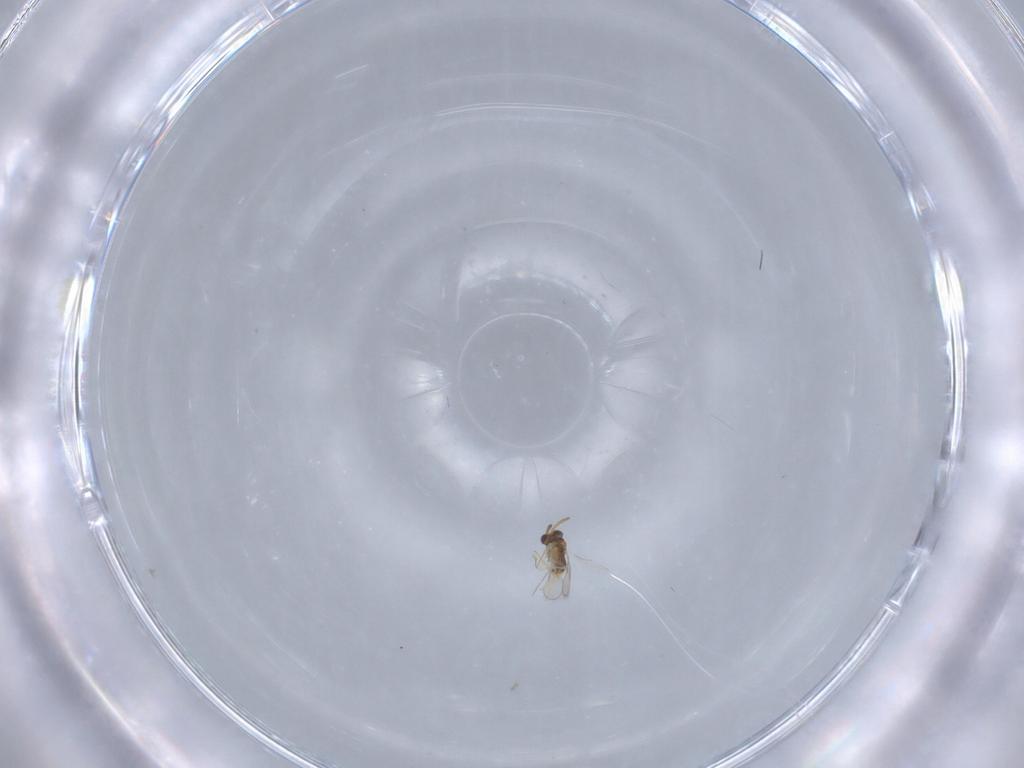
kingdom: Animalia
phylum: Arthropoda
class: Insecta
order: Hymenoptera
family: Aphelinidae
